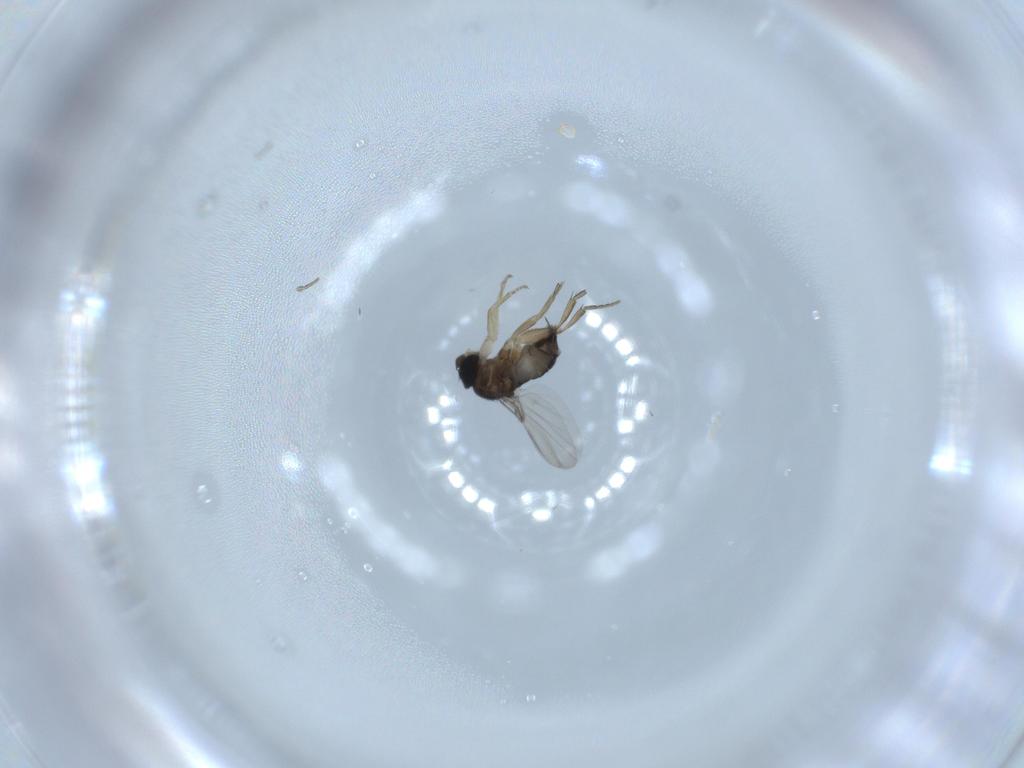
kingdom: Animalia
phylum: Arthropoda
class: Insecta
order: Diptera
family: Phoridae
